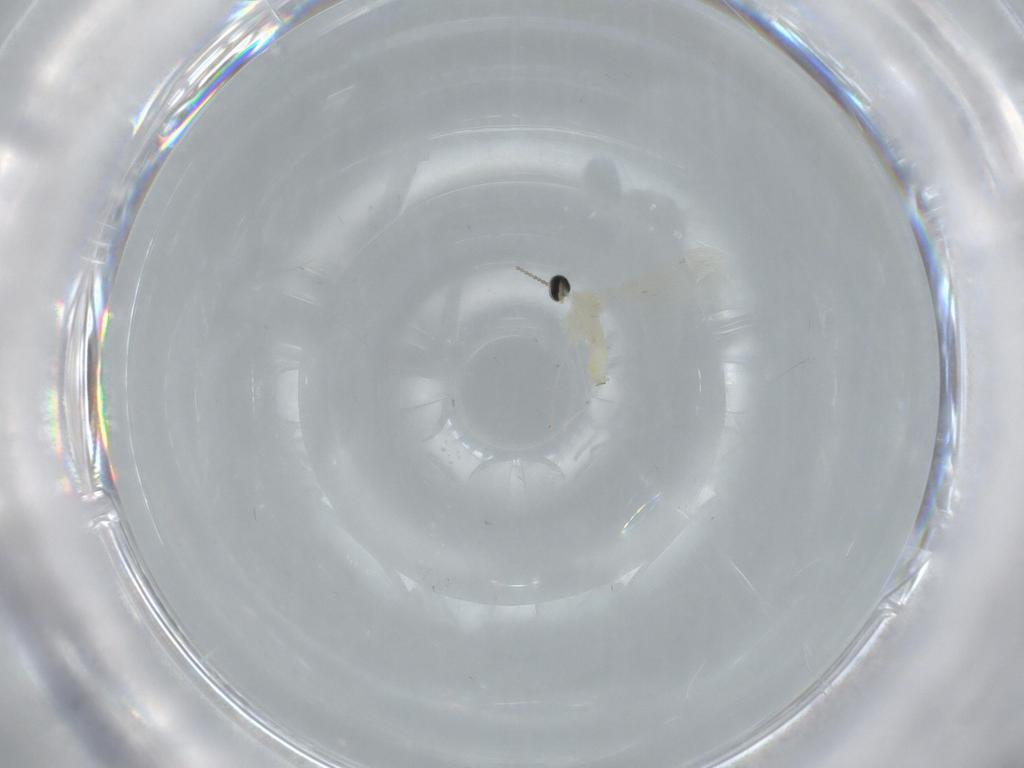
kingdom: Animalia
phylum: Arthropoda
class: Insecta
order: Diptera
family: Cecidomyiidae
